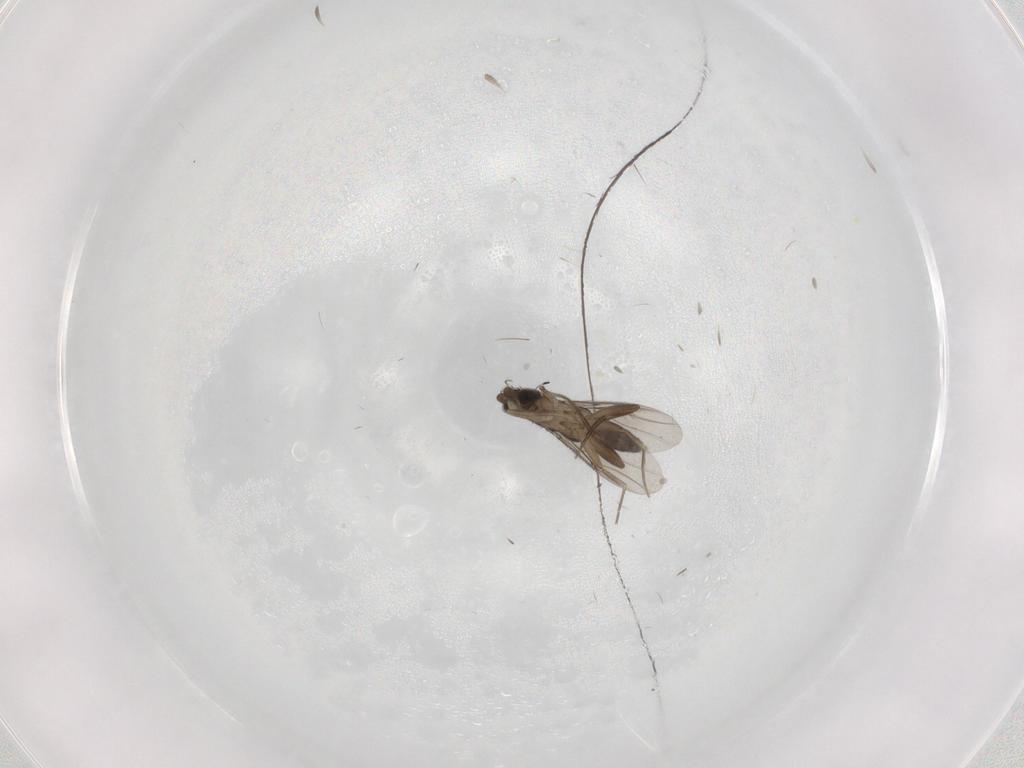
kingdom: Animalia
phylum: Arthropoda
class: Insecta
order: Diptera
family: Phoridae
